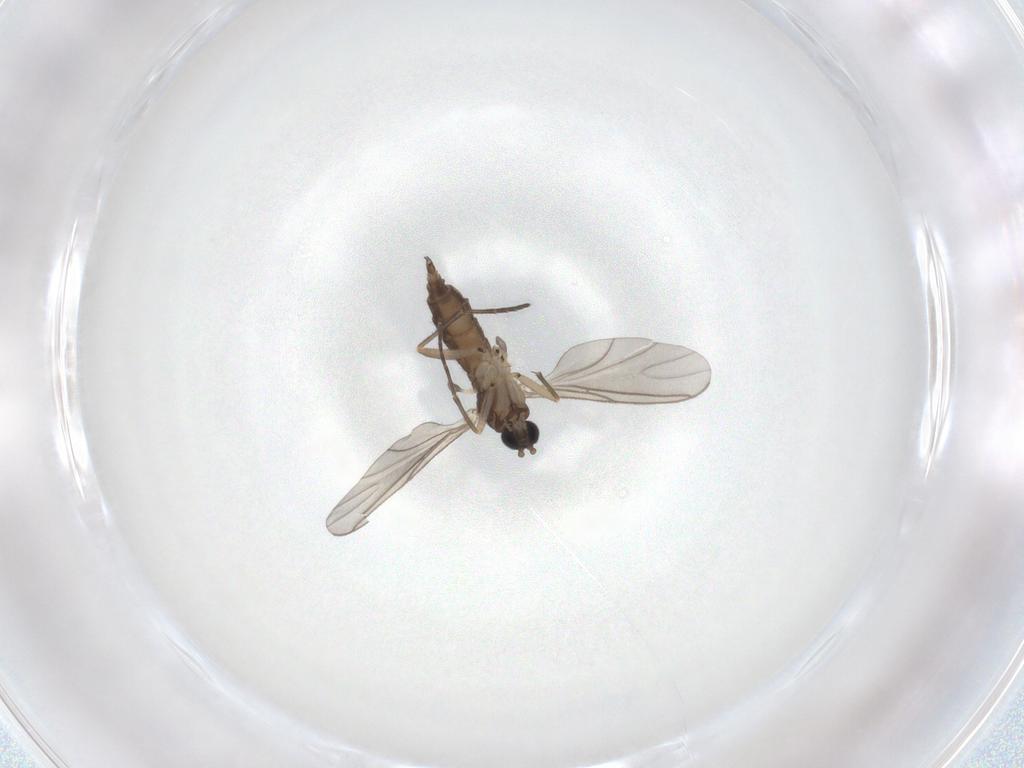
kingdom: Animalia
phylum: Arthropoda
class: Insecta
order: Diptera
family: Sciaridae
